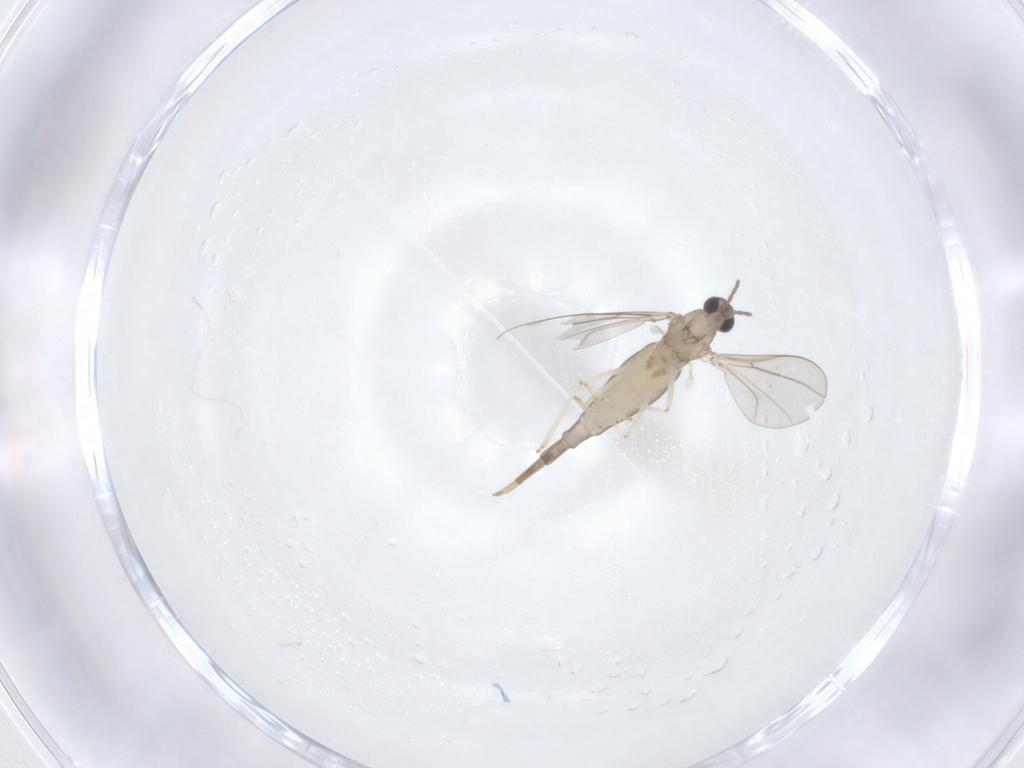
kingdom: Animalia
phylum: Arthropoda
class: Insecta
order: Diptera
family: Cecidomyiidae
